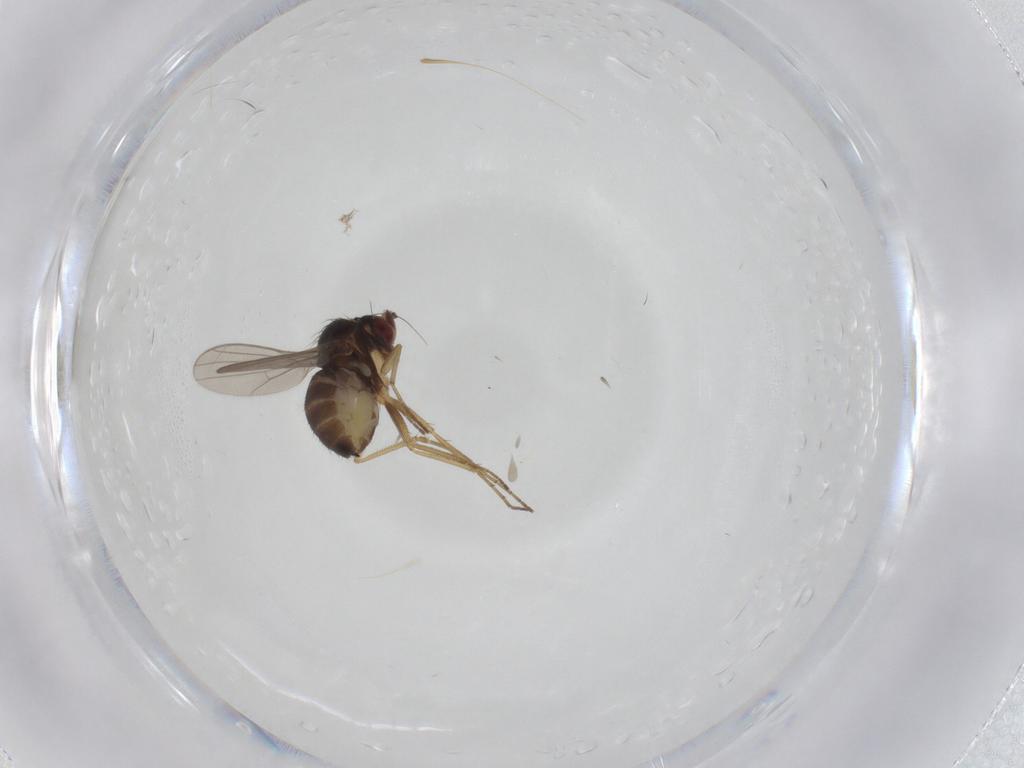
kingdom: Animalia
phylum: Arthropoda
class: Insecta
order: Diptera
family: Dolichopodidae
